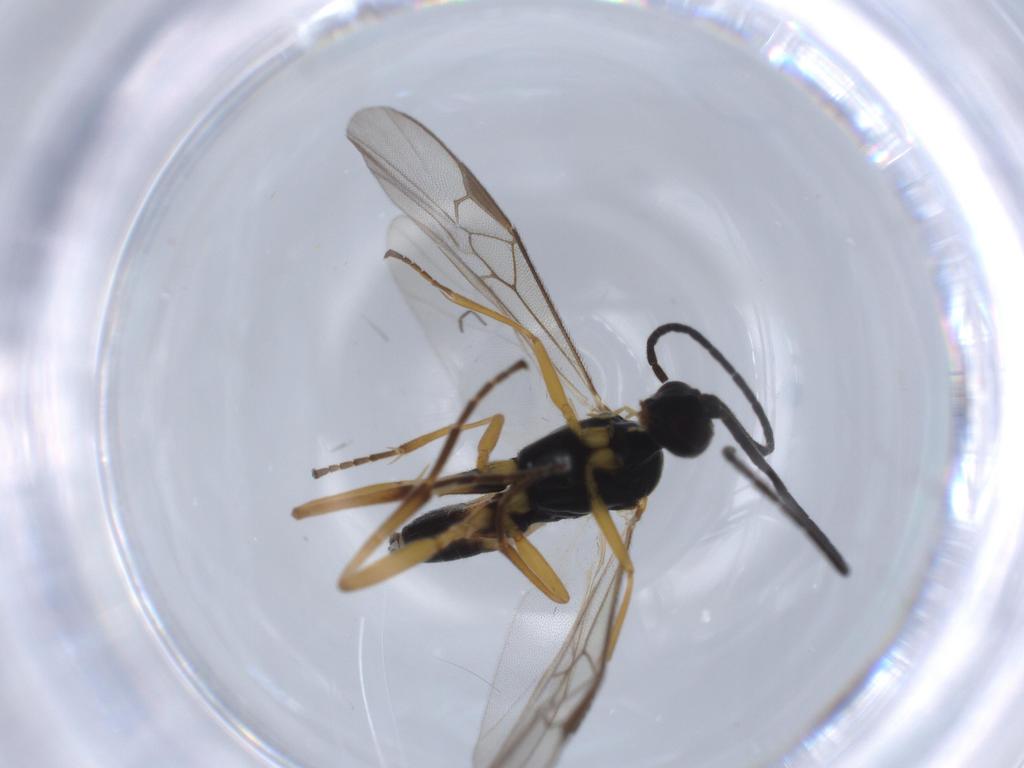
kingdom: Animalia
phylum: Arthropoda
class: Insecta
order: Hymenoptera
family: Braconidae
